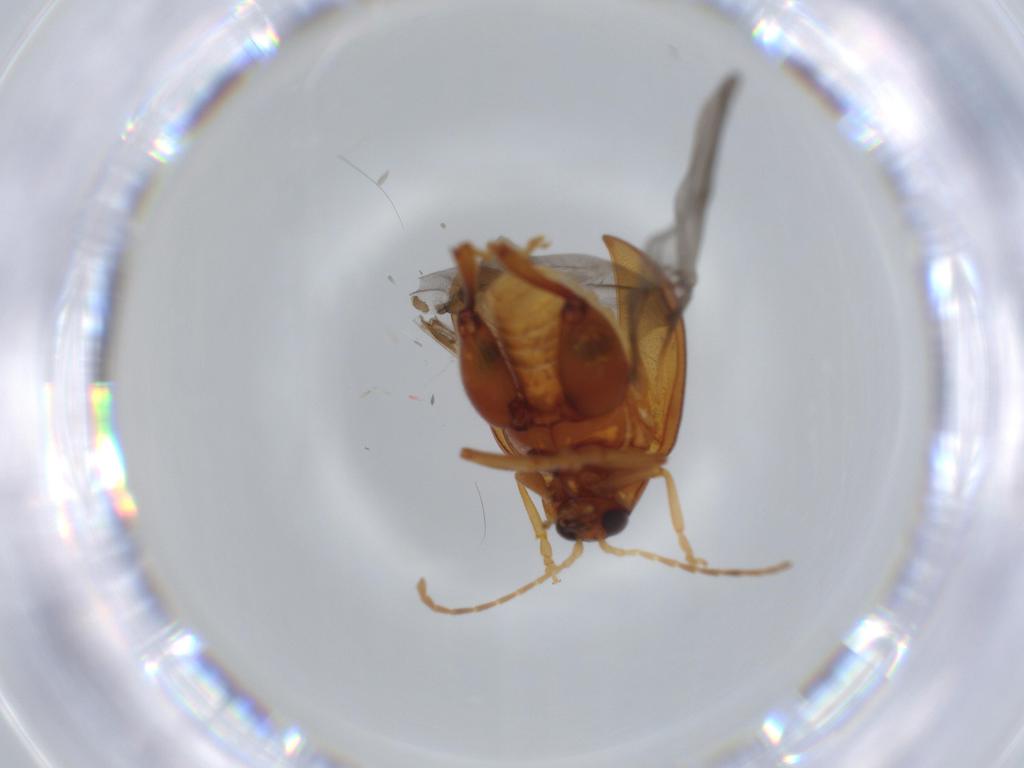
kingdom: Animalia
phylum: Arthropoda
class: Insecta
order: Coleoptera
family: Chrysomelidae
